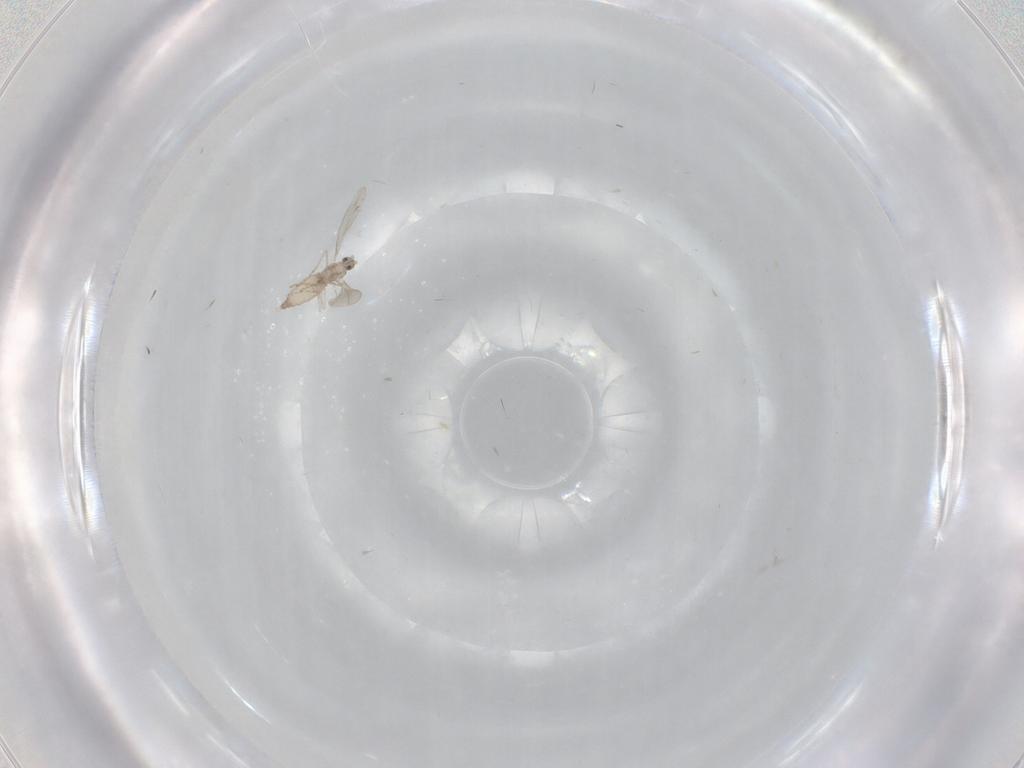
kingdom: Animalia
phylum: Arthropoda
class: Insecta
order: Diptera
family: Cecidomyiidae
